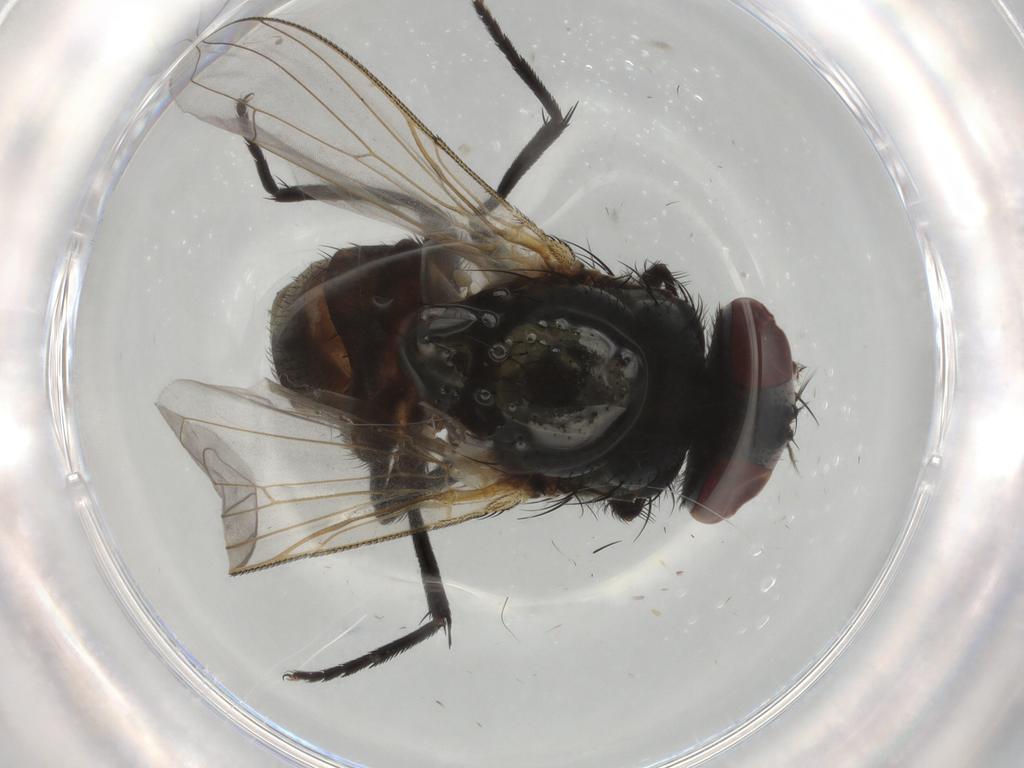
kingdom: Animalia
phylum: Arthropoda
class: Insecta
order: Diptera
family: Muscidae
